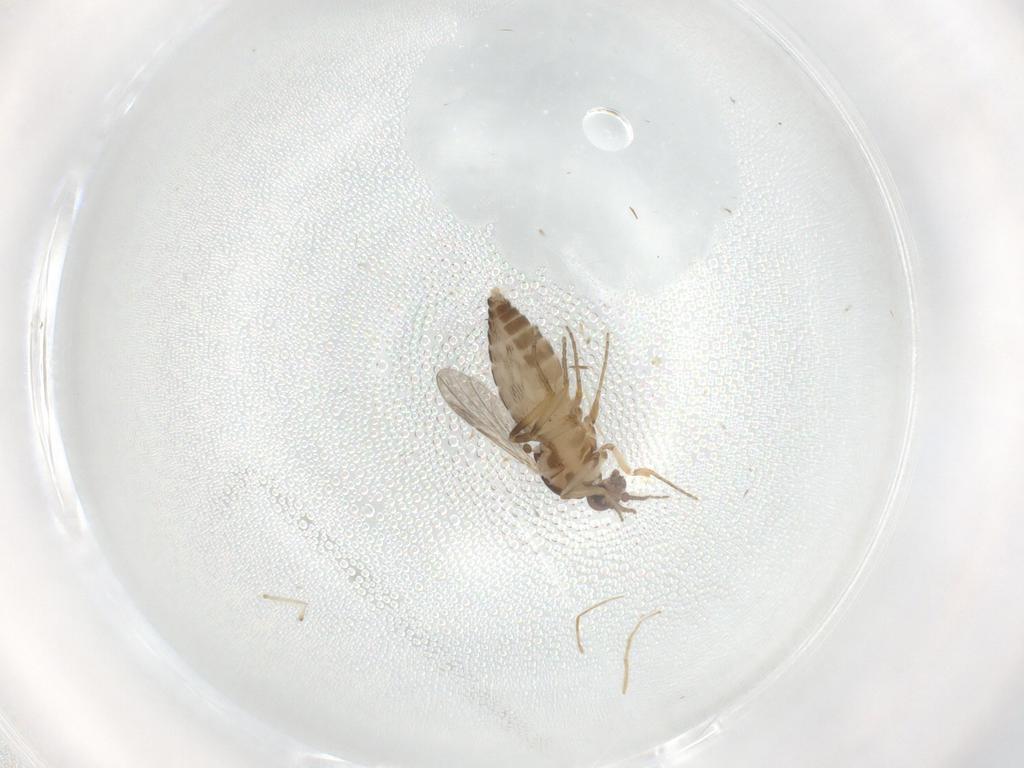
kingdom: Animalia
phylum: Arthropoda
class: Insecta
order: Diptera
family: Ceratopogonidae
